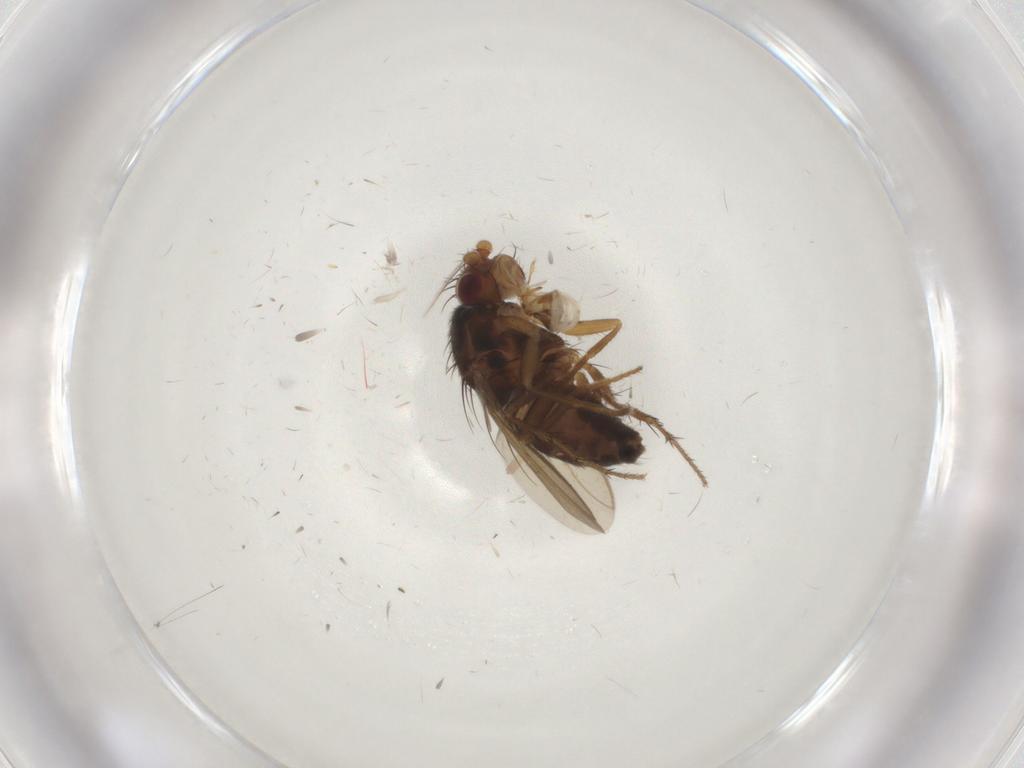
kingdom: Animalia
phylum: Arthropoda
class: Insecta
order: Diptera
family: Sphaeroceridae
